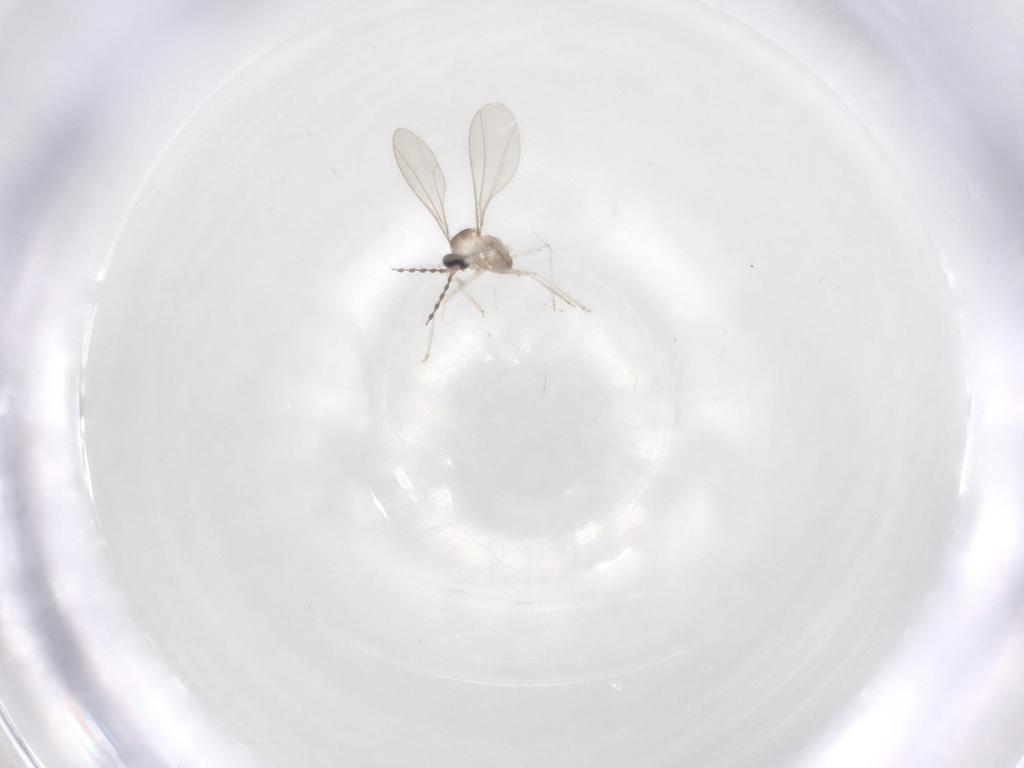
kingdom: Animalia
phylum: Arthropoda
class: Insecta
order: Diptera
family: Cecidomyiidae
